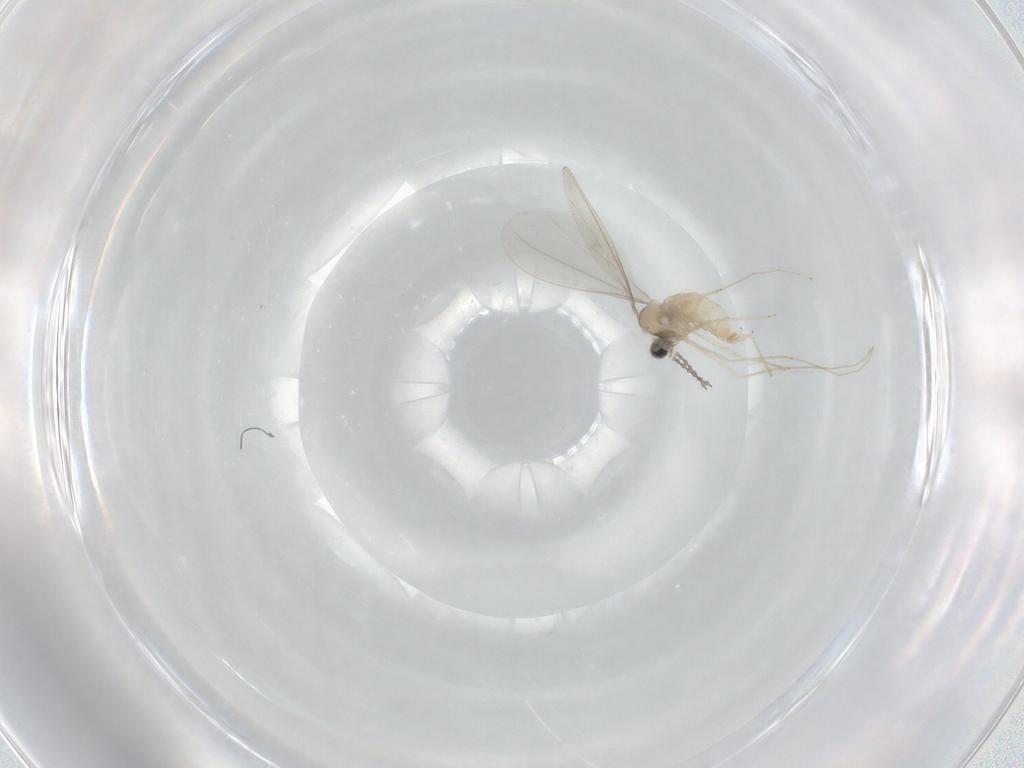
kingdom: Animalia
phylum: Arthropoda
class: Insecta
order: Diptera
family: Cecidomyiidae
